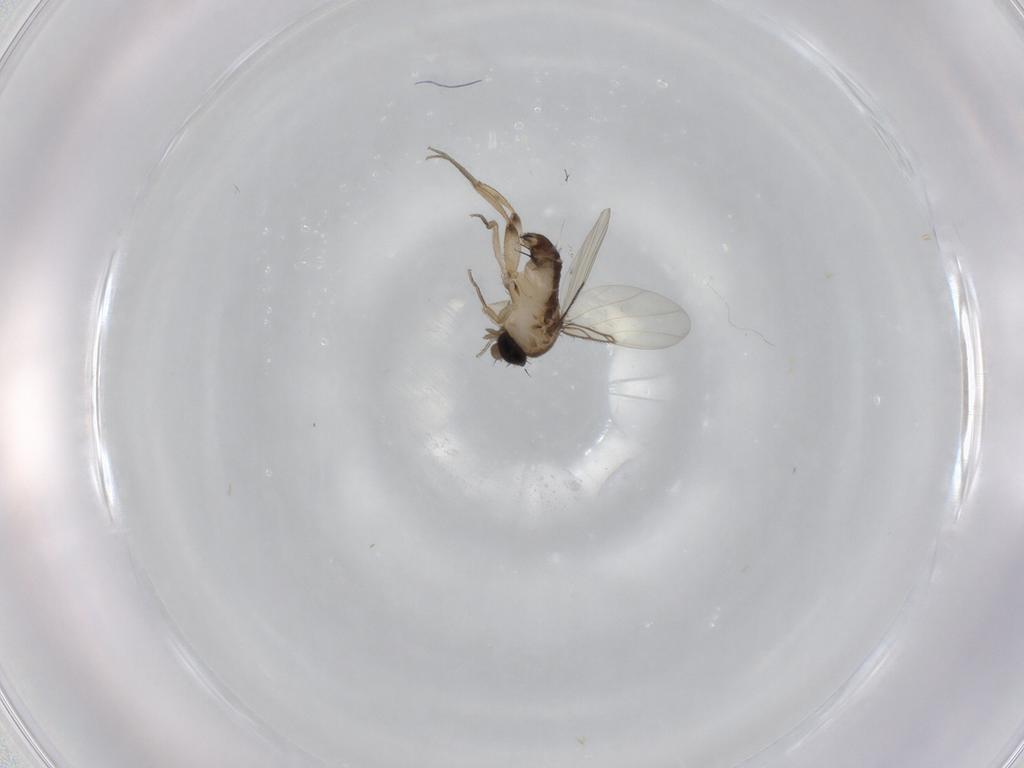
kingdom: Animalia
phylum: Arthropoda
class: Insecta
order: Diptera
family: Phoridae
